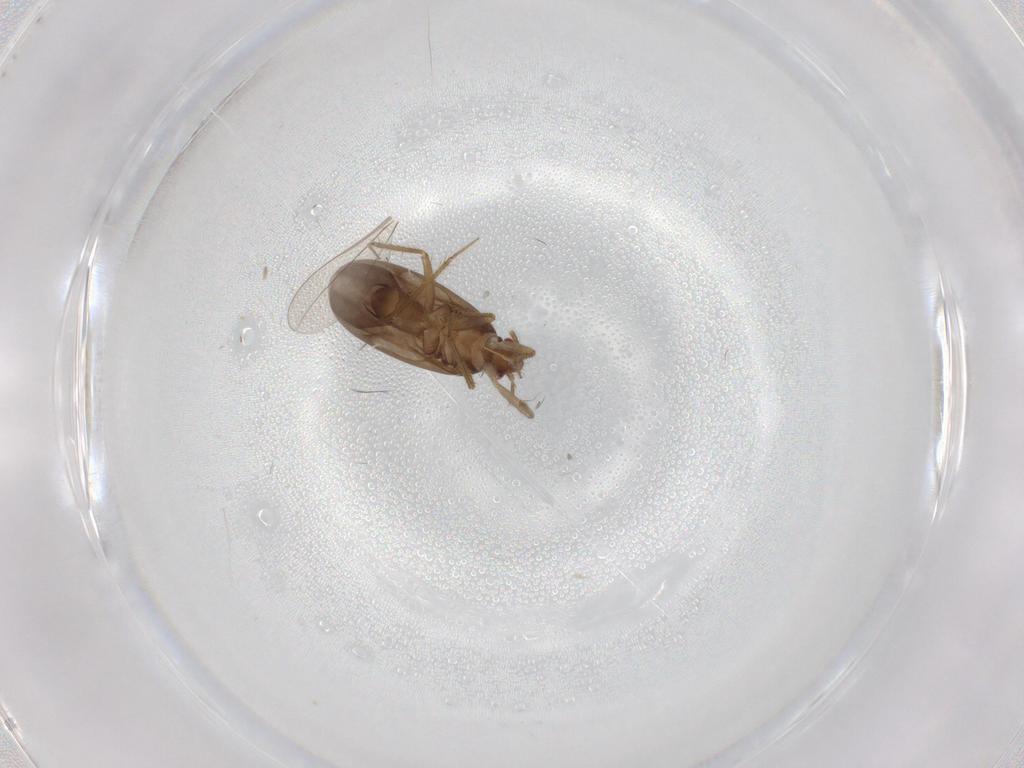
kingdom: Animalia
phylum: Arthropoda
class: Insecta
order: Hemiptera
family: Ceratocombidae
